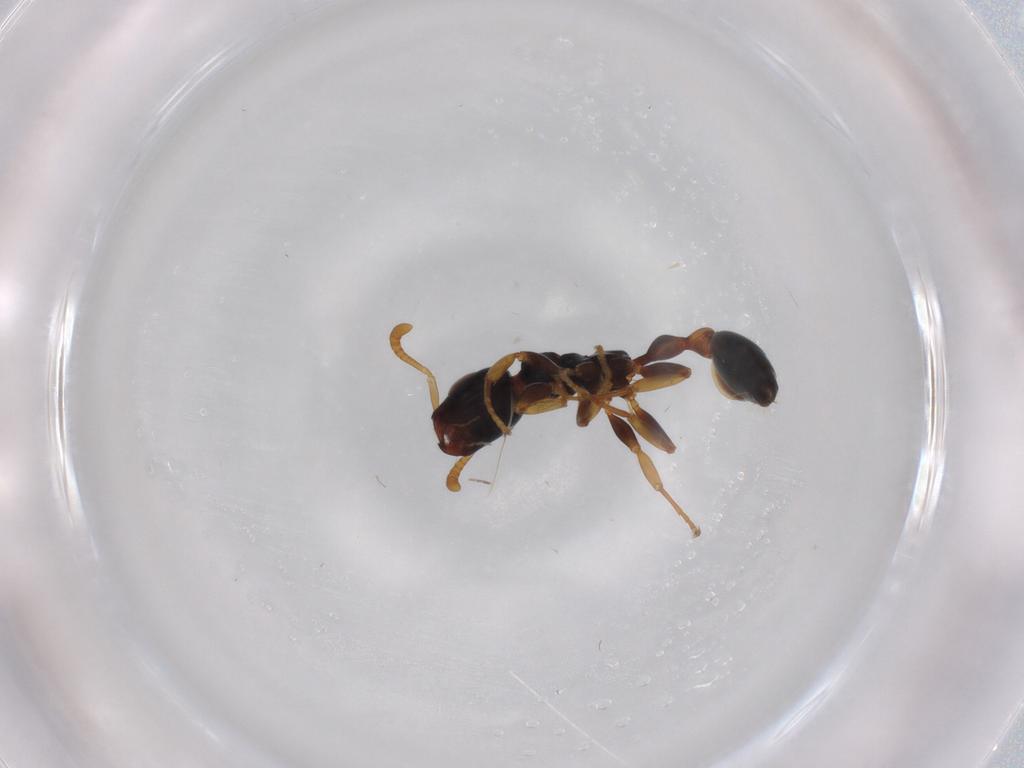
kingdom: Animalia
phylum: Arthropoda
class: Insecta
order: Hymenoptera
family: Formicidae
